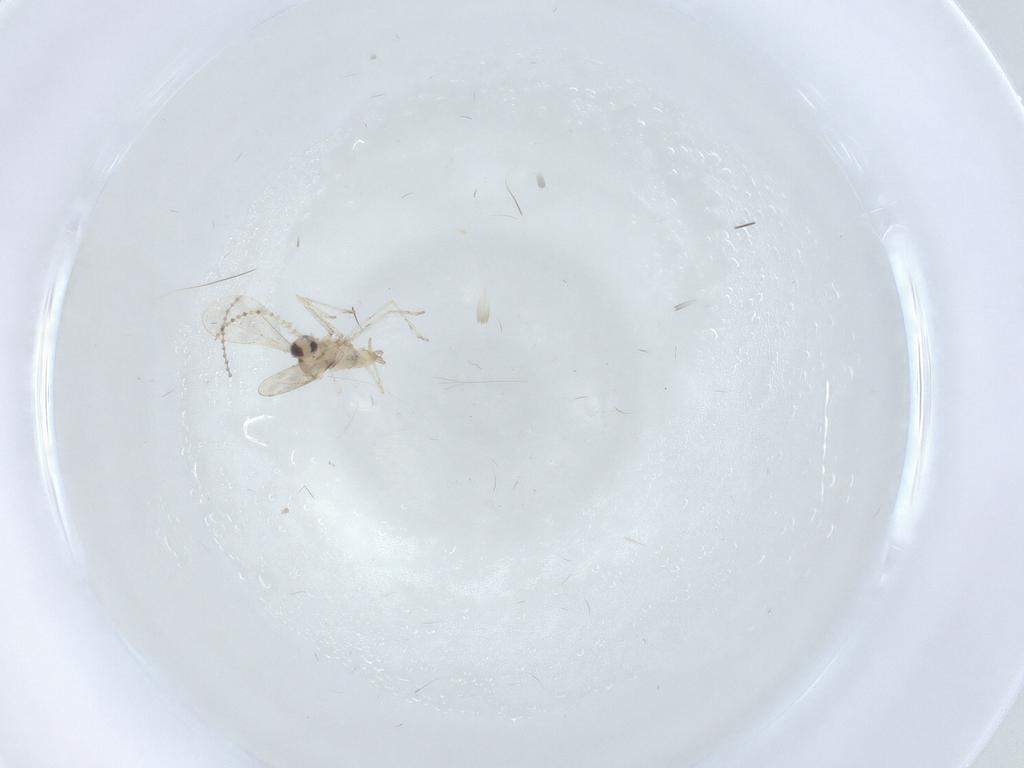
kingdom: Animalia
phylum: Arthropoda
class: Insecta
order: Diptera
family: Cecidomyiidae
